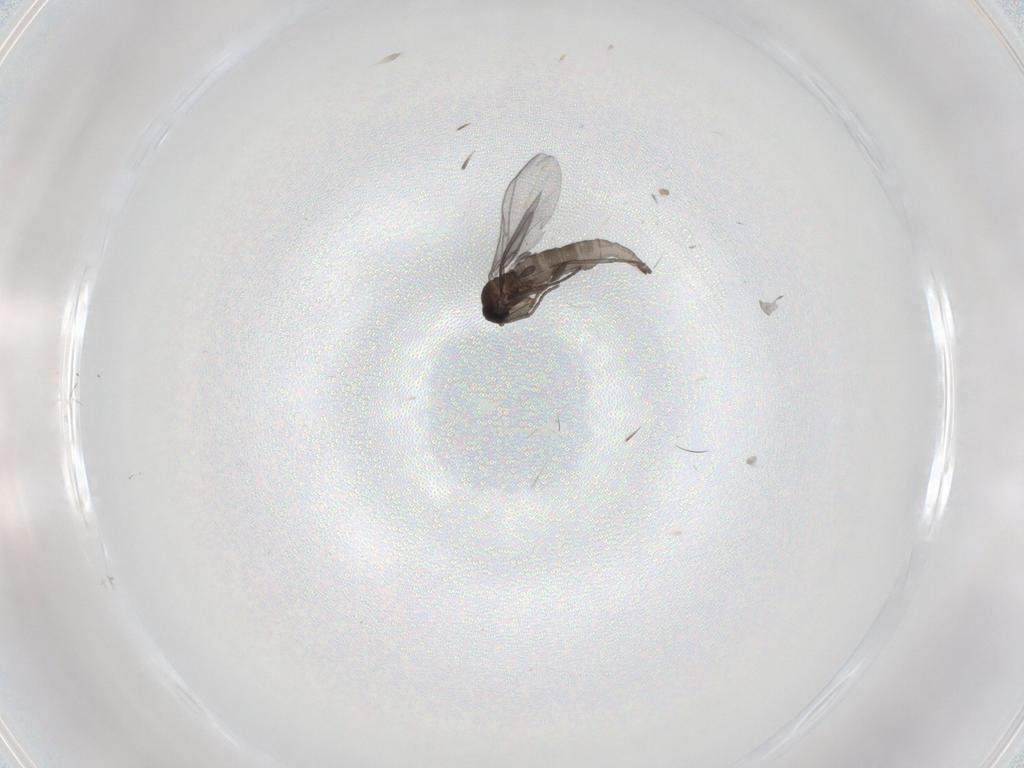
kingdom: Animalia
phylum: Arthropoda
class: Insecta
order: Diptera
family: Sciaridae
